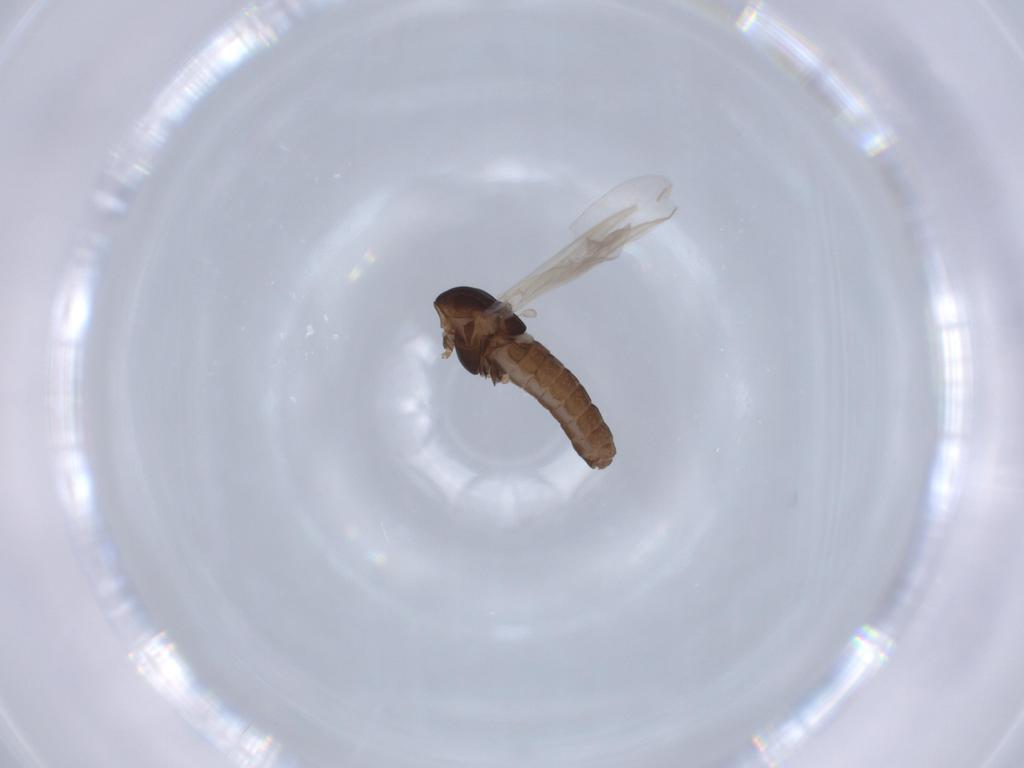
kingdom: Animalia
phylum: Arthropoda
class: Insecta
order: Diptera
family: Chironomidae
